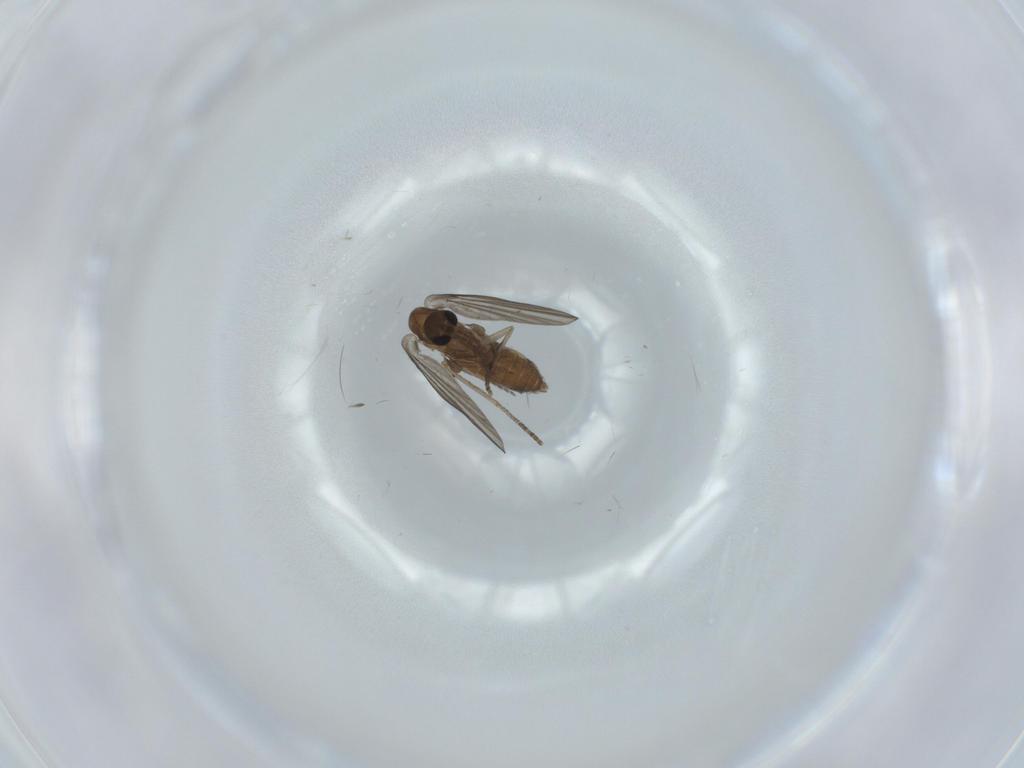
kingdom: Animalia
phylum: Arthropoda
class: Insecta
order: Diptera
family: Psychodidae
